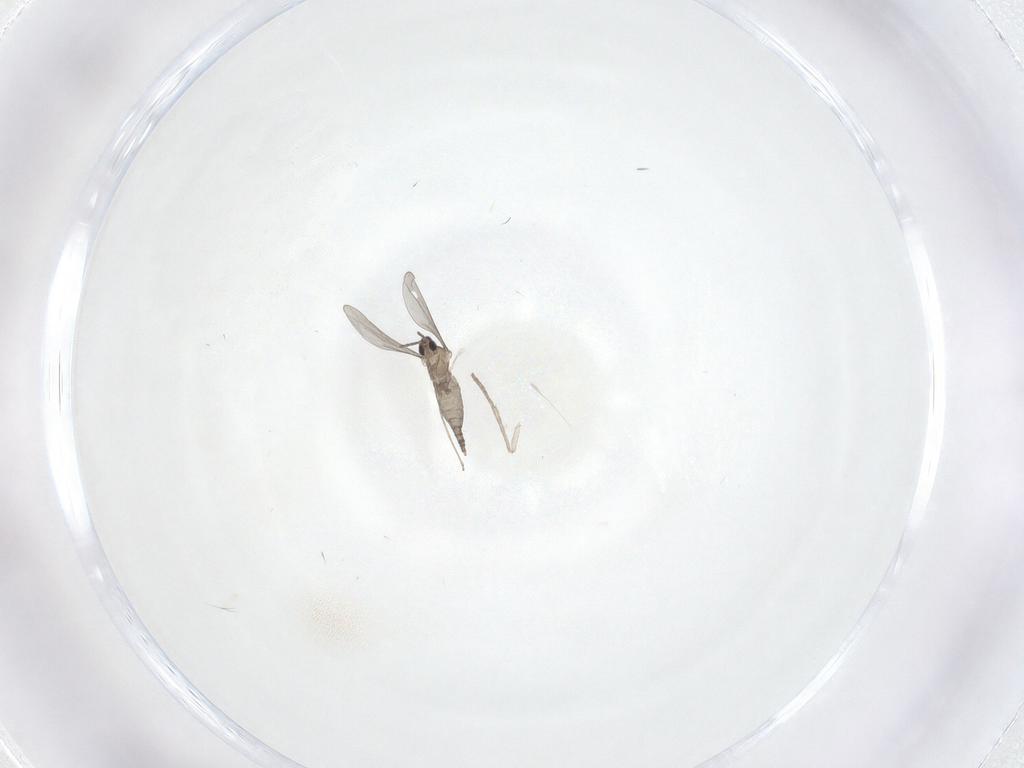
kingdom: Animalia
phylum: Arthropoda
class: Insecta
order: Diptera
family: Cecidomyiidae
